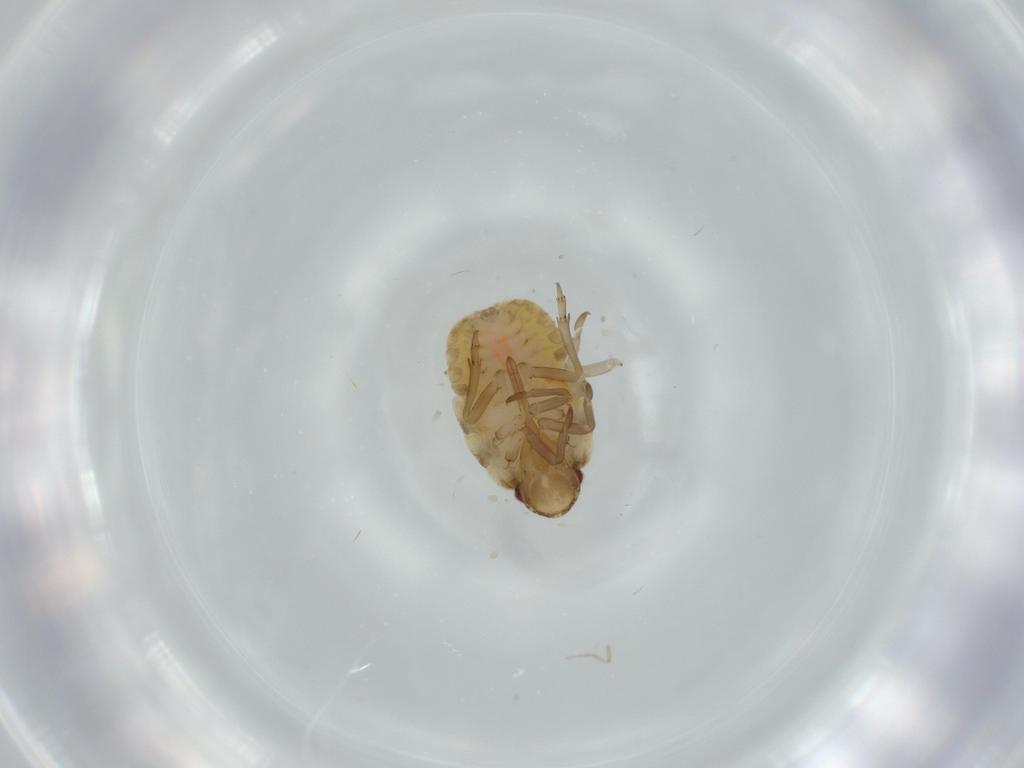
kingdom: Animalia
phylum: Arthropoda
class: Insecta
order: Hemiptera
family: Flatidae
